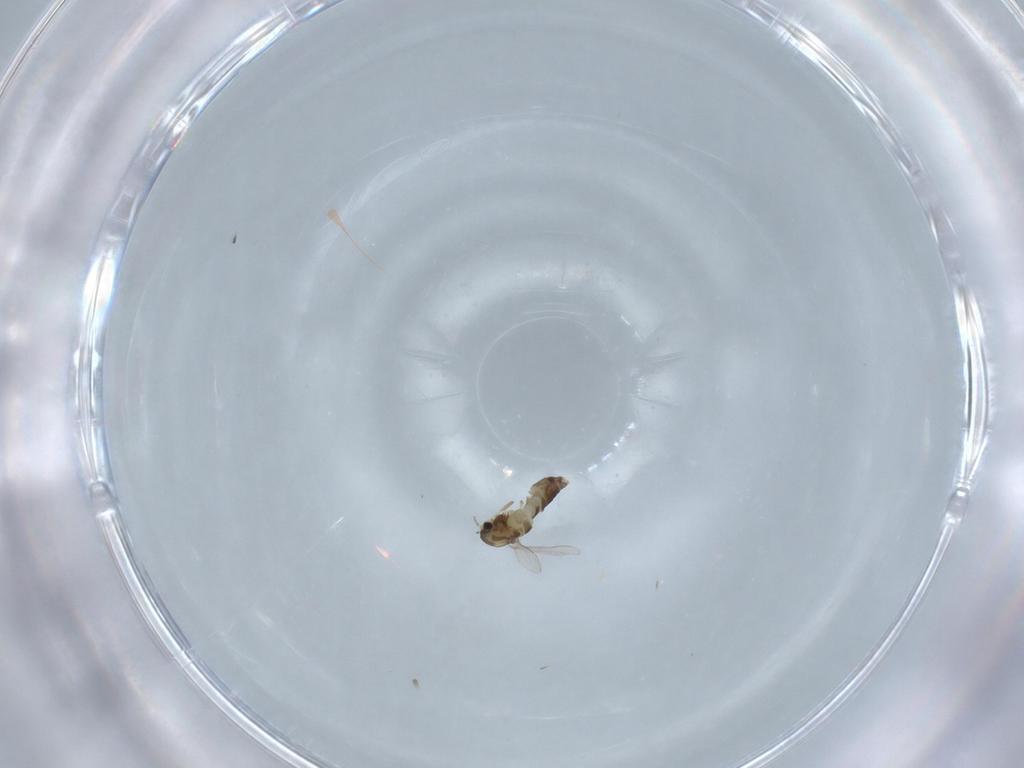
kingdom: Animalia
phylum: Arthropoda
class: Insecta
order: Diptera
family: Chironomidae
